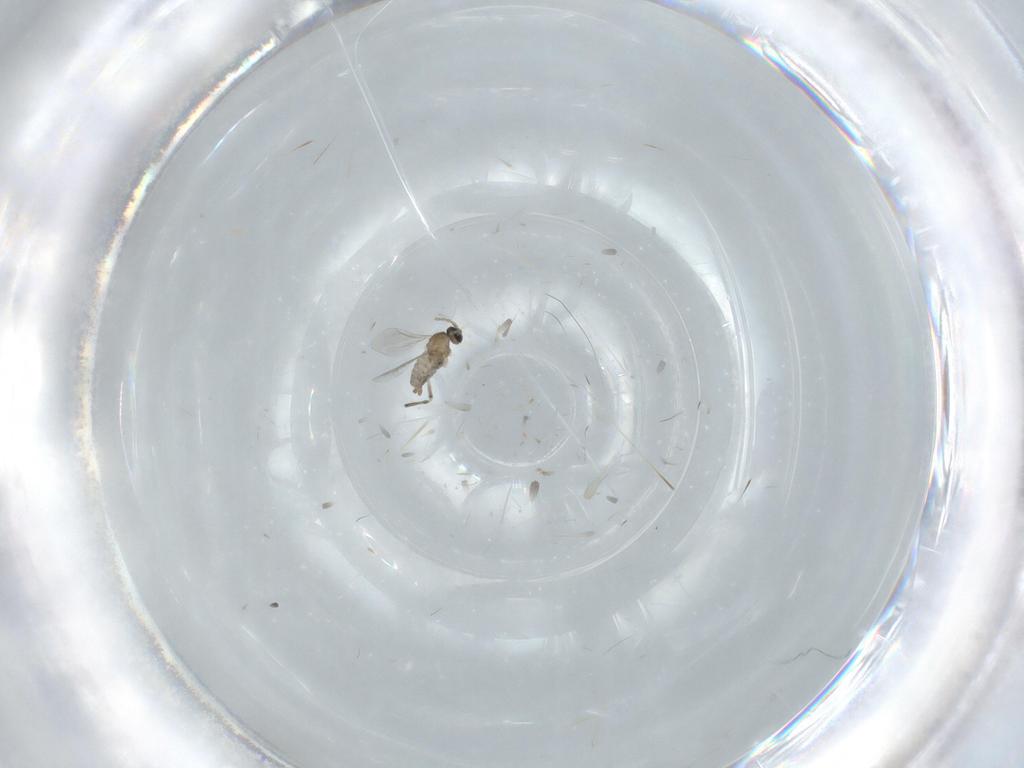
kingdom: Animalia
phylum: Arthropoda
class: Insecta
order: Diptera
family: Cecidomyiidae
